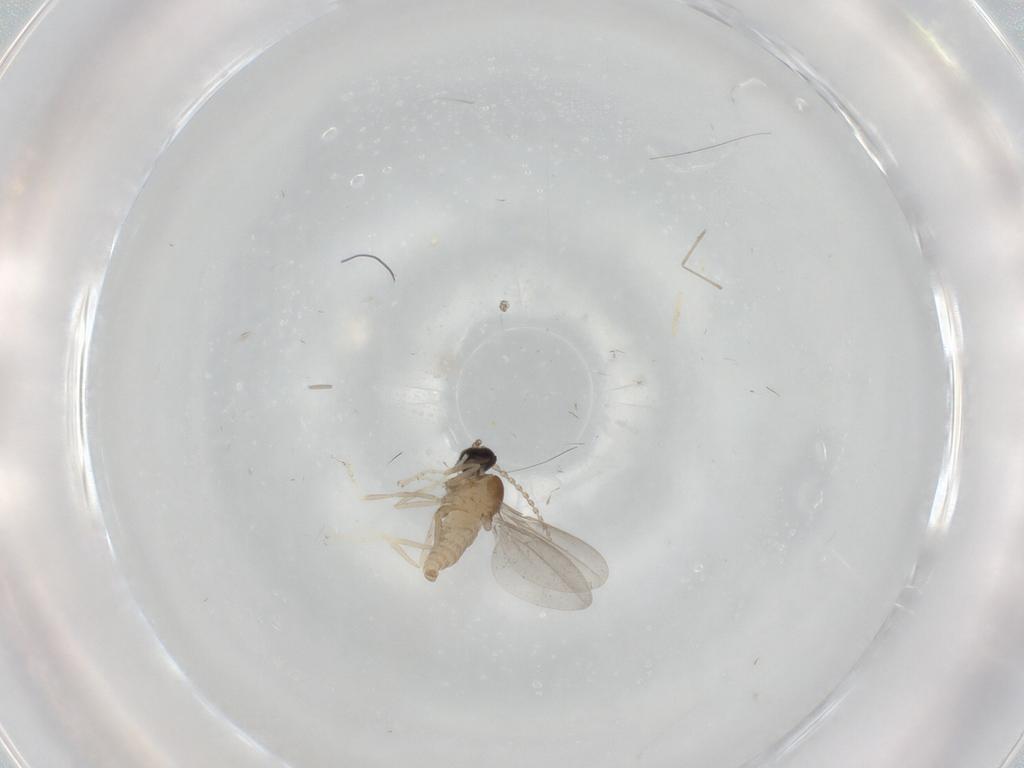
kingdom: Animalia
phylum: Arthropoda
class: Insecta
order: Diptera
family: Cecidomyiidae
